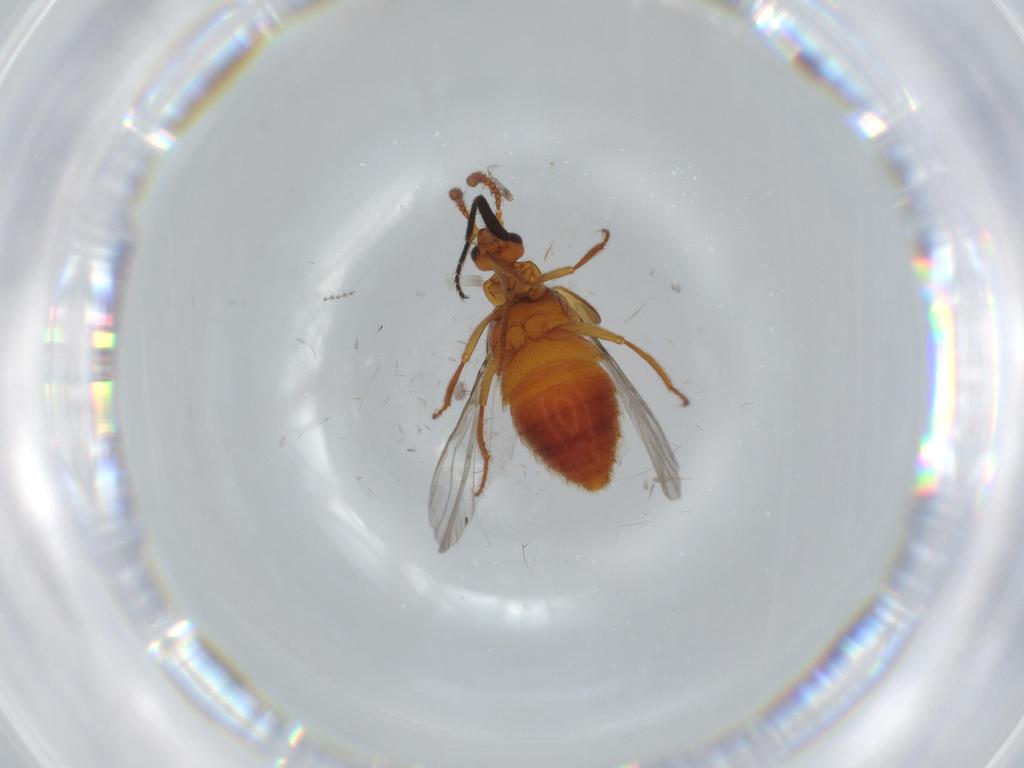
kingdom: Animalia
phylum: Arthropoda
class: Insecta
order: Coleoptera
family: Staphylinidae
